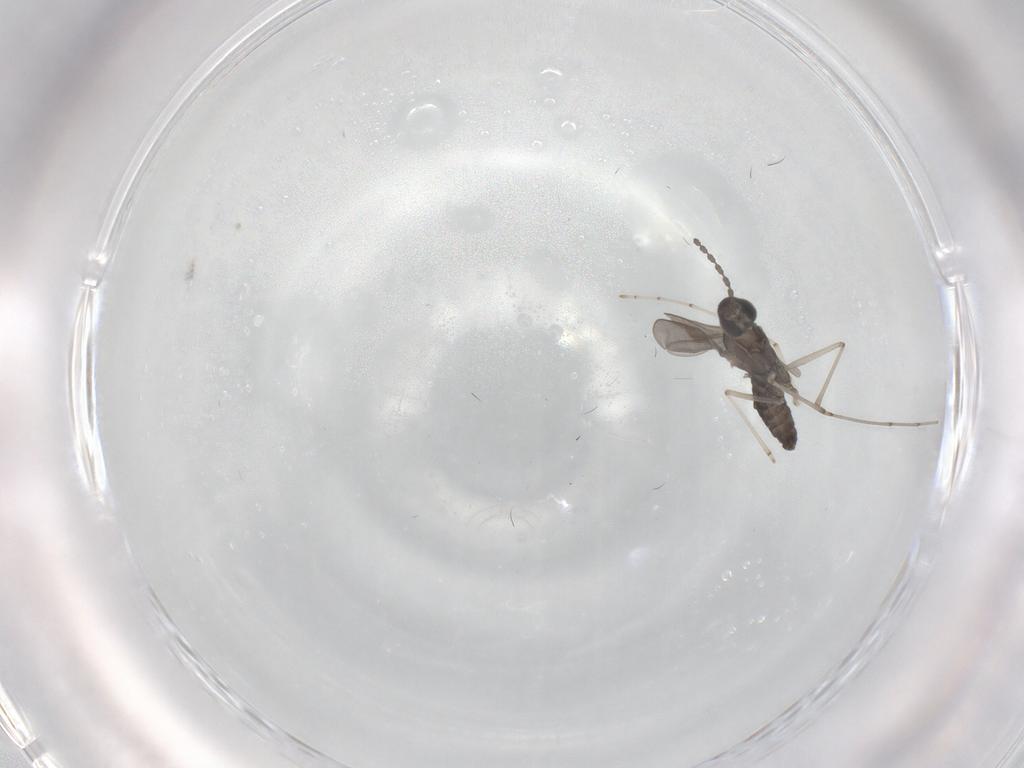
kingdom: Animalia
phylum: Arthropoda
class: Insecta
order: Diptera
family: Cecidomyiidae
